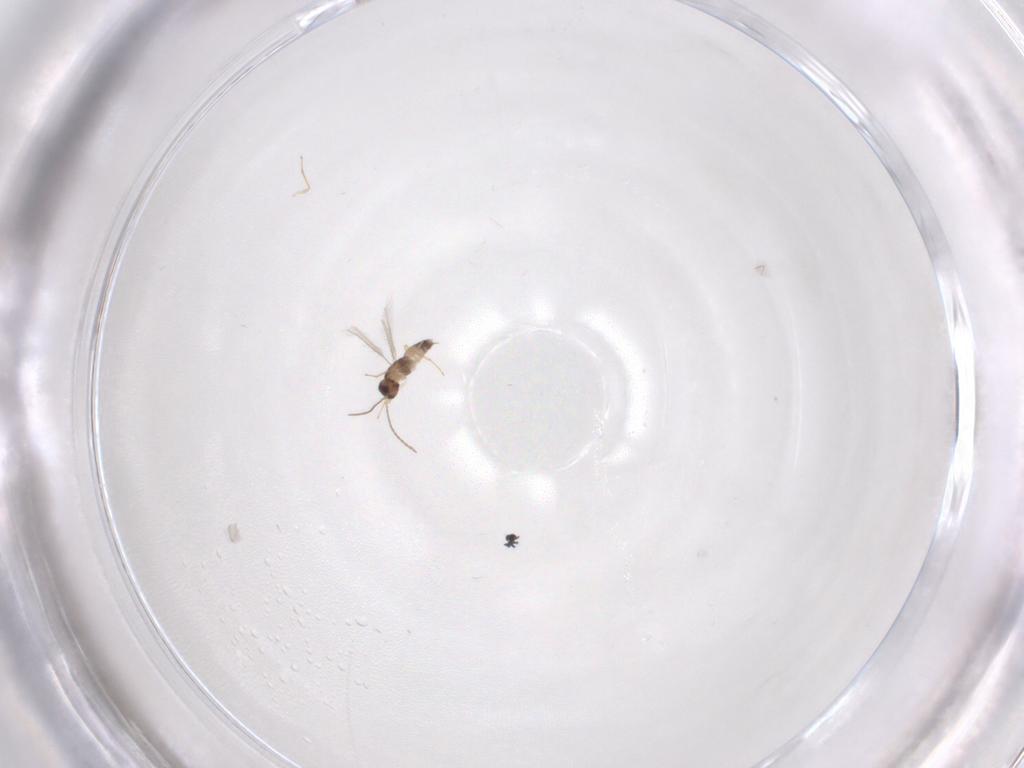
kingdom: Animalia
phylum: Arthropoda
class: Insecta
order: Hymenoptera
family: Mymaridae
